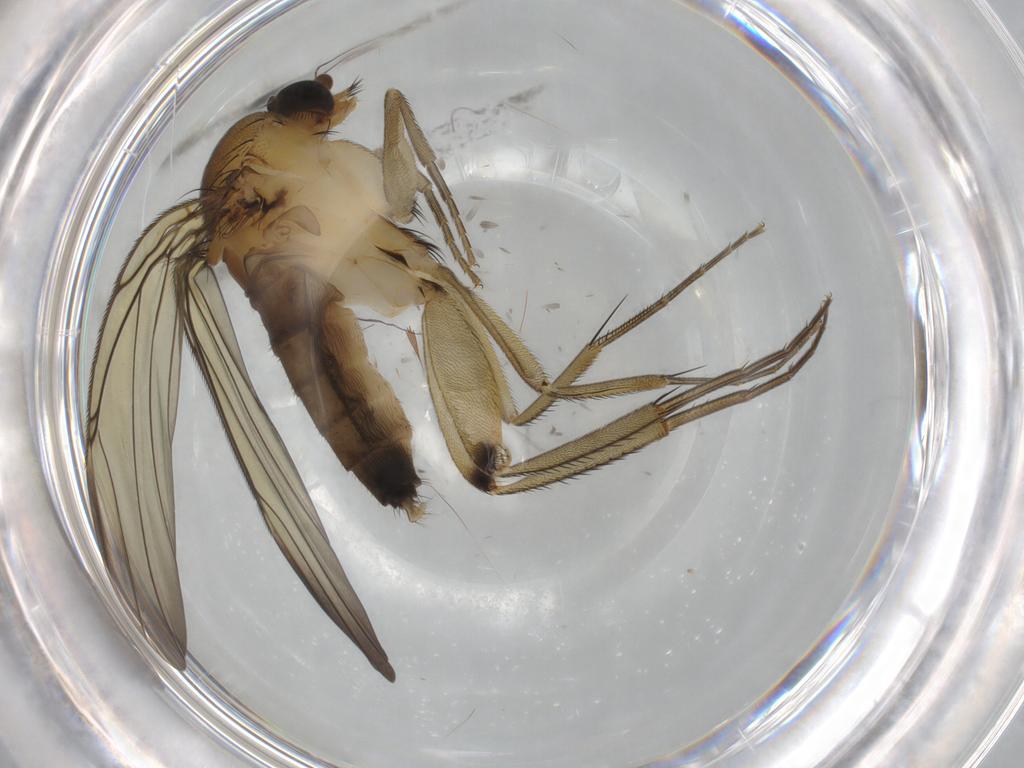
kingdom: Animalia
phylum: Arthropoda
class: Insecta
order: Diptera
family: Phoridae
